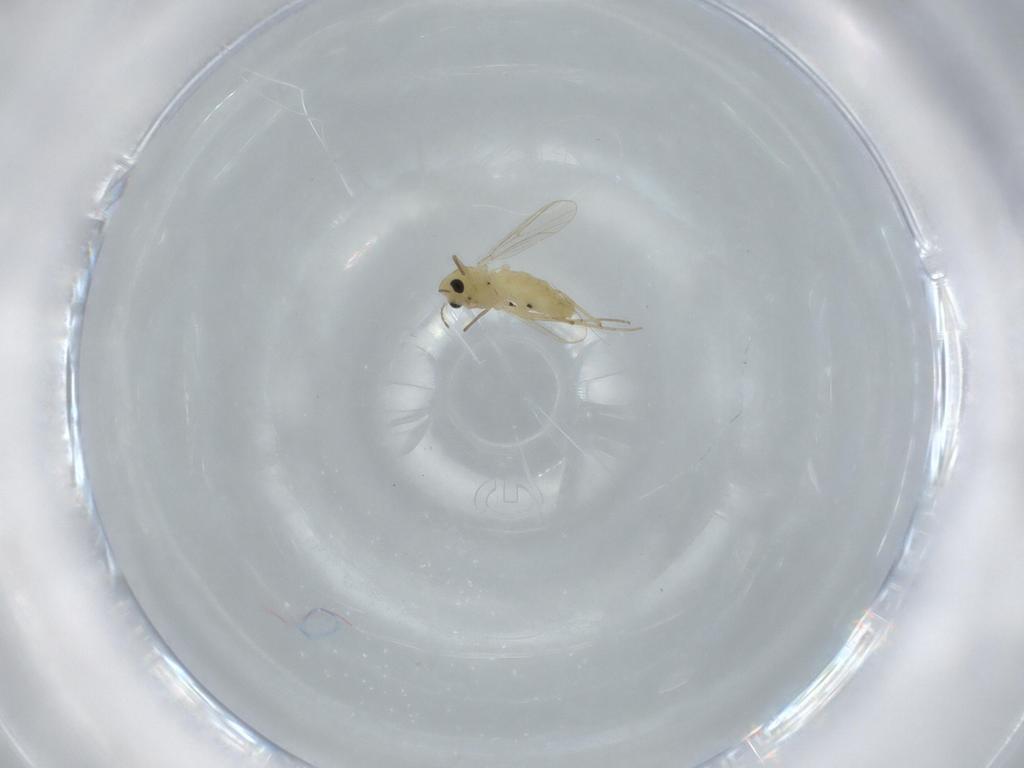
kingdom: Animalia
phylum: Arthropoda
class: Insecta
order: Diptera
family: Chironomidae
